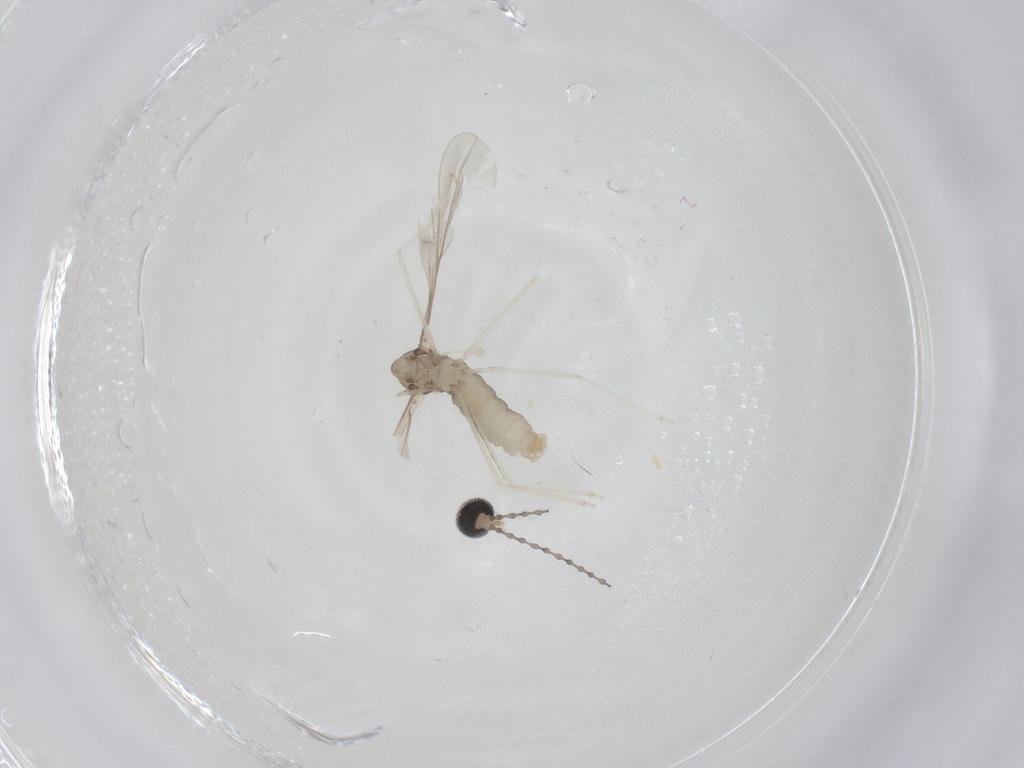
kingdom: Animalia
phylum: Arthropoda
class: Insecta
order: Diptera
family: Cecidomyiidae
